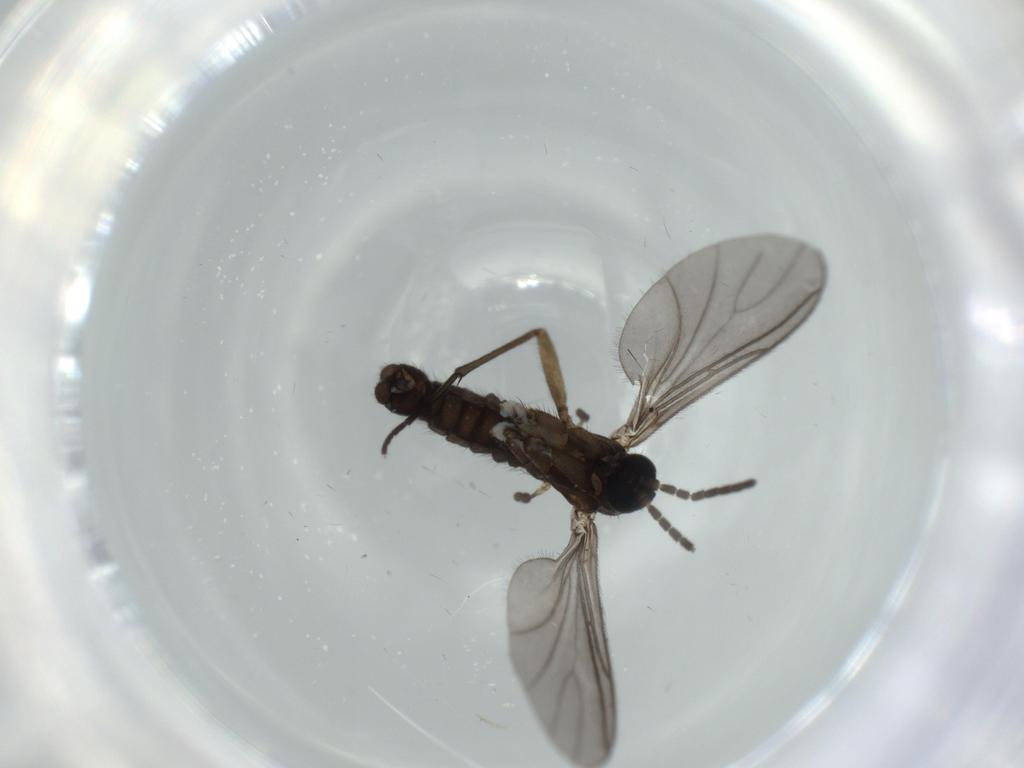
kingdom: Animalia
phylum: Arthropoda
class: Insecta
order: Diptera
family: Sciaridae
